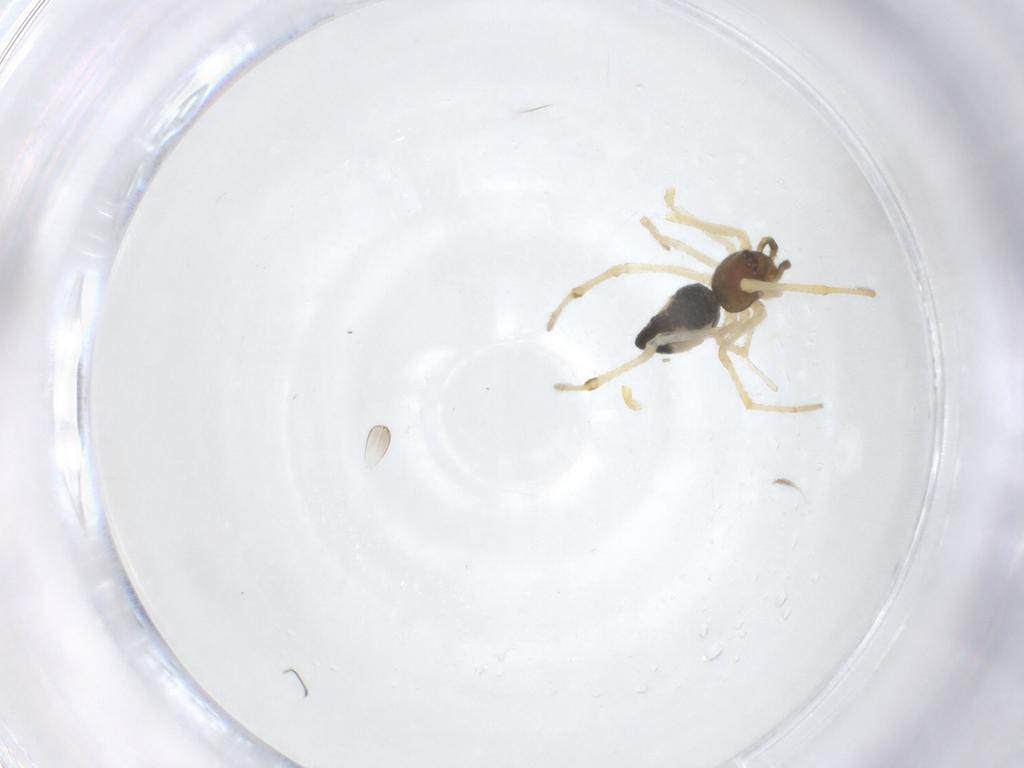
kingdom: Animalia
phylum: Arthropoda
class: Arachnida
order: Araneae
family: Theridiidae
